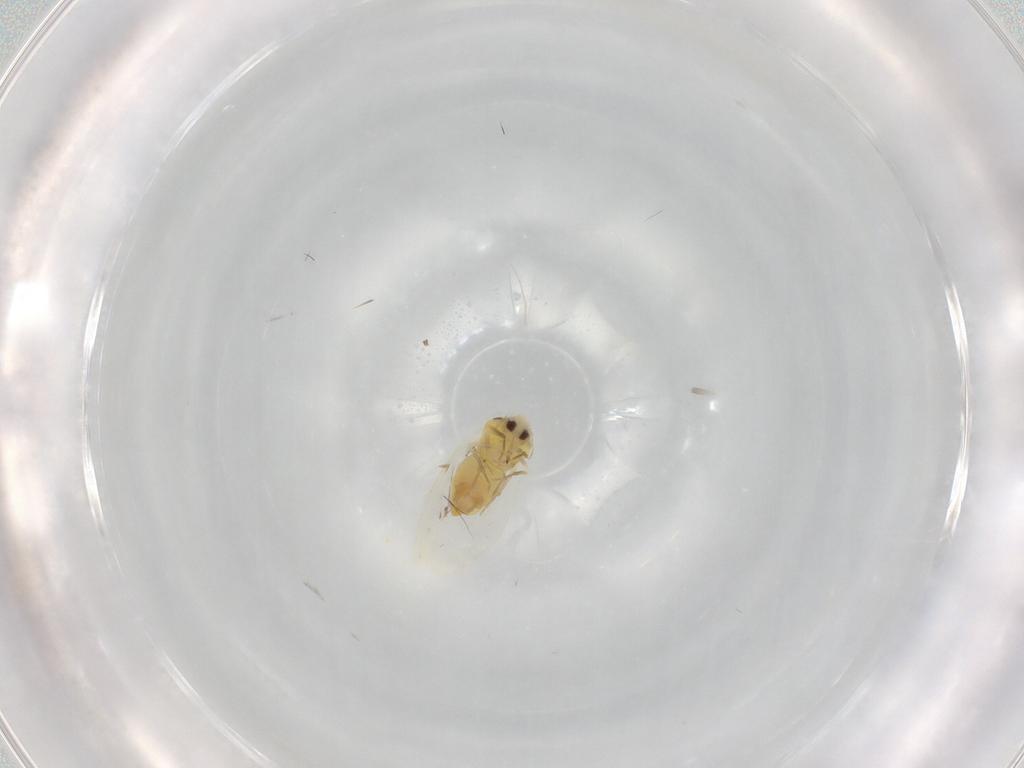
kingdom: Animalia
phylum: Arthropoda
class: Insecta
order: Hemiptera
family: Aleyrodidae
